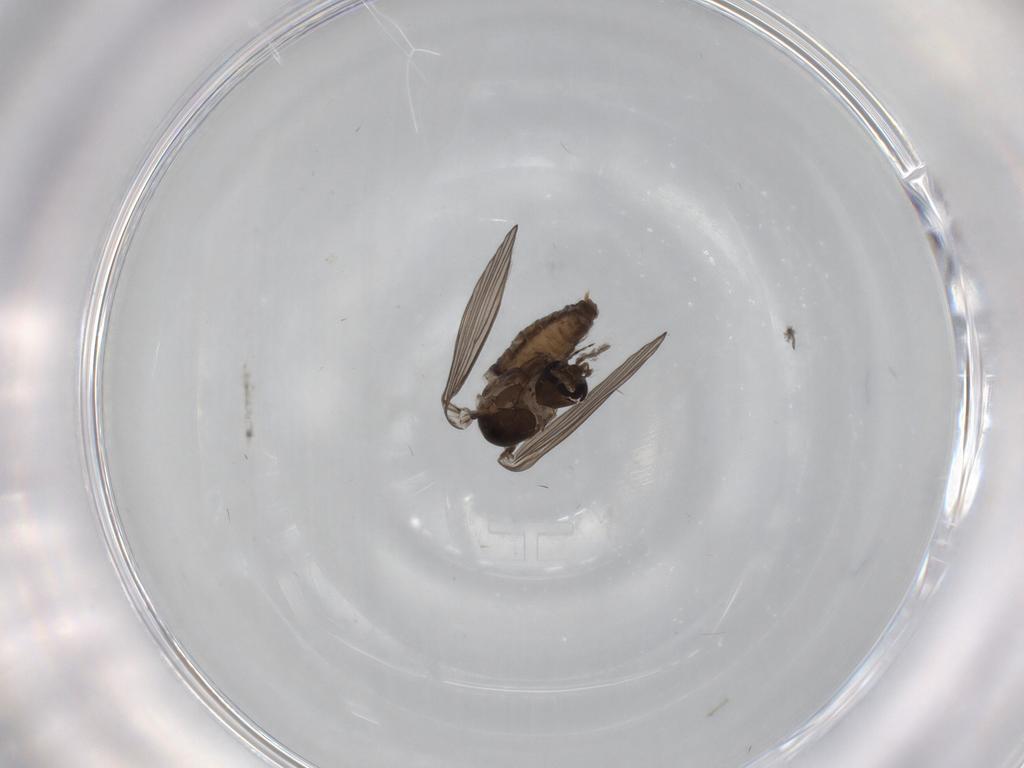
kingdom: Animalia
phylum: Arthropoda
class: Insecta
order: Diptera
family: Psychodidae
